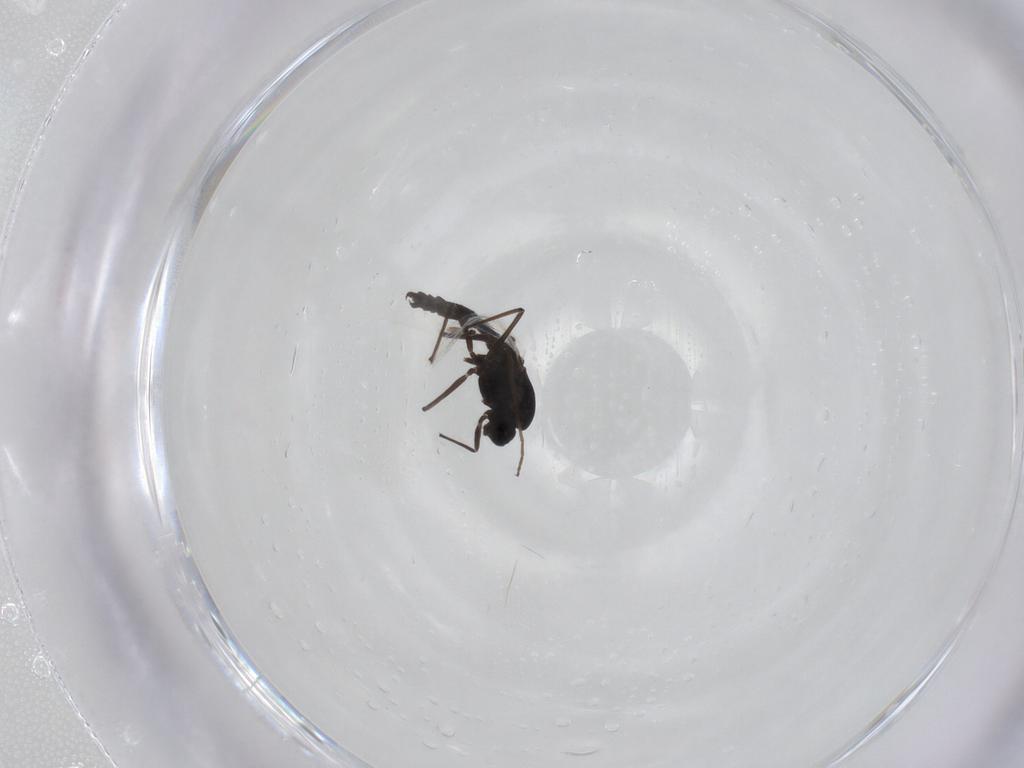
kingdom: Animalia
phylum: Arthropoda
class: Insecta
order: Diptera
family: Chironomidae
